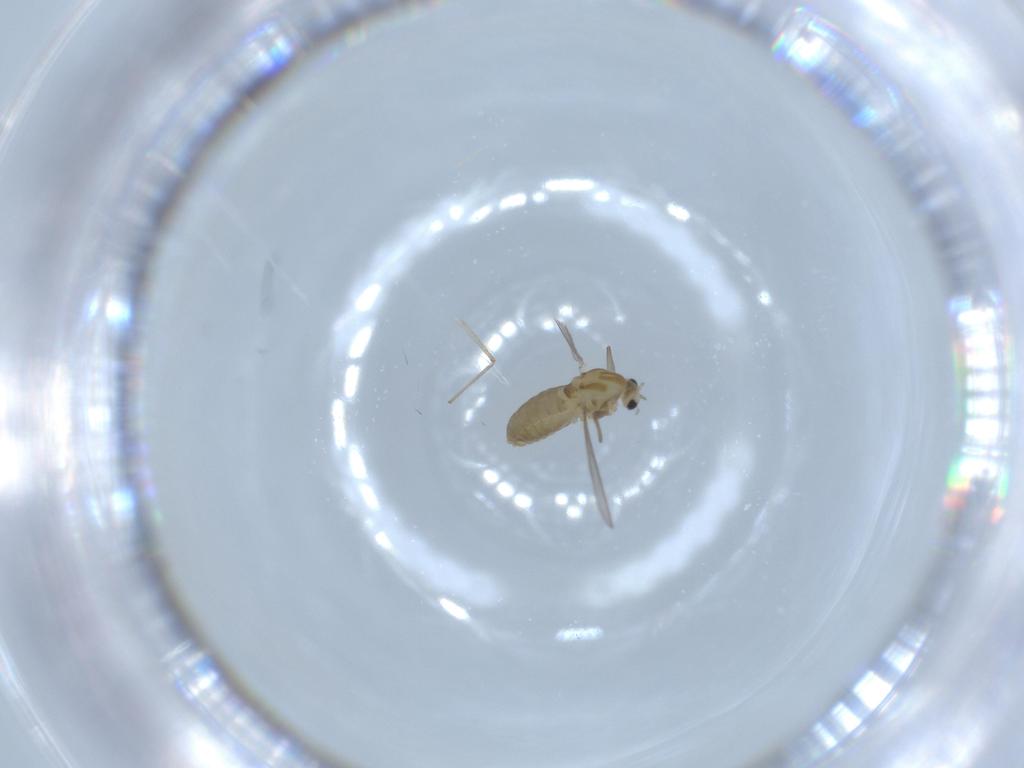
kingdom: Animalia
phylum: Arthropoda
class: Insecta
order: Diptera
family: Chironomidae
